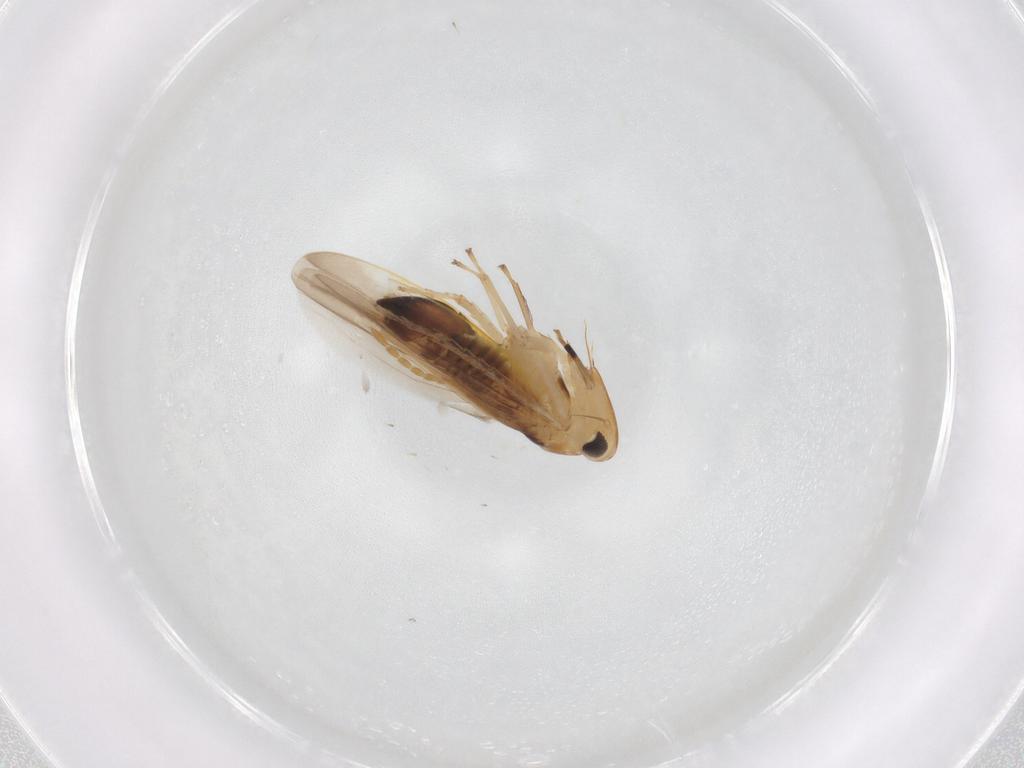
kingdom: Animalia
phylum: Arthropoda
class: Insecta
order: Hemiptera
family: Cicadellidae
